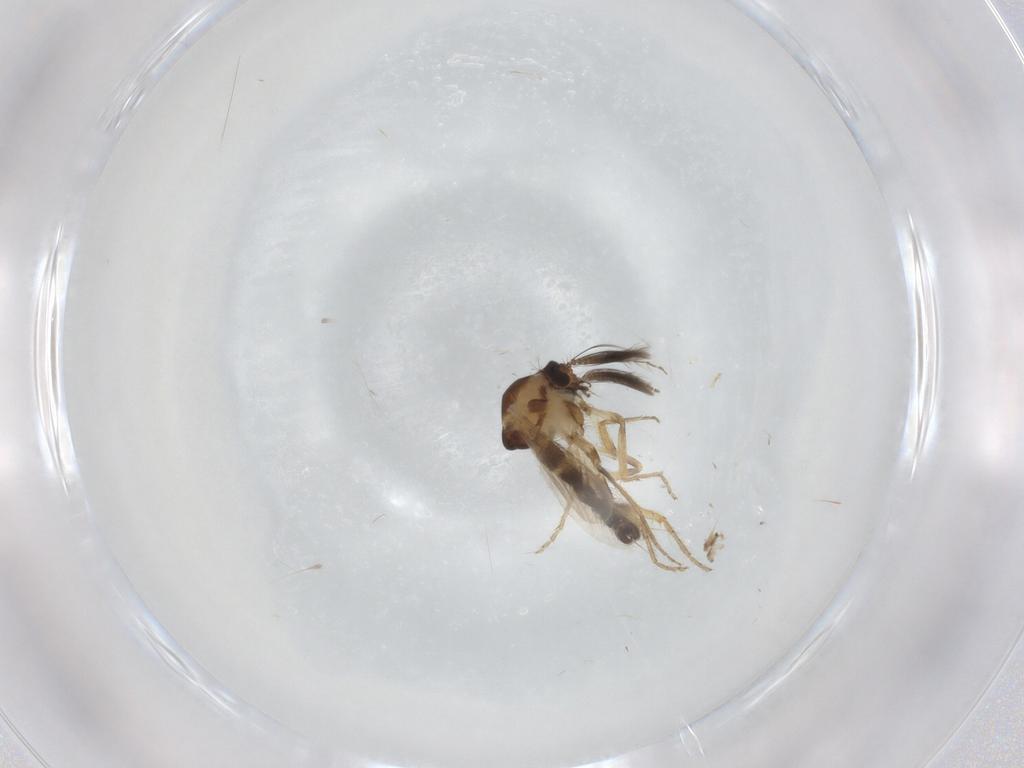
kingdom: Animalia
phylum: Arthropoda
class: Insecta
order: Diptera
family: Ceratopogonidae
